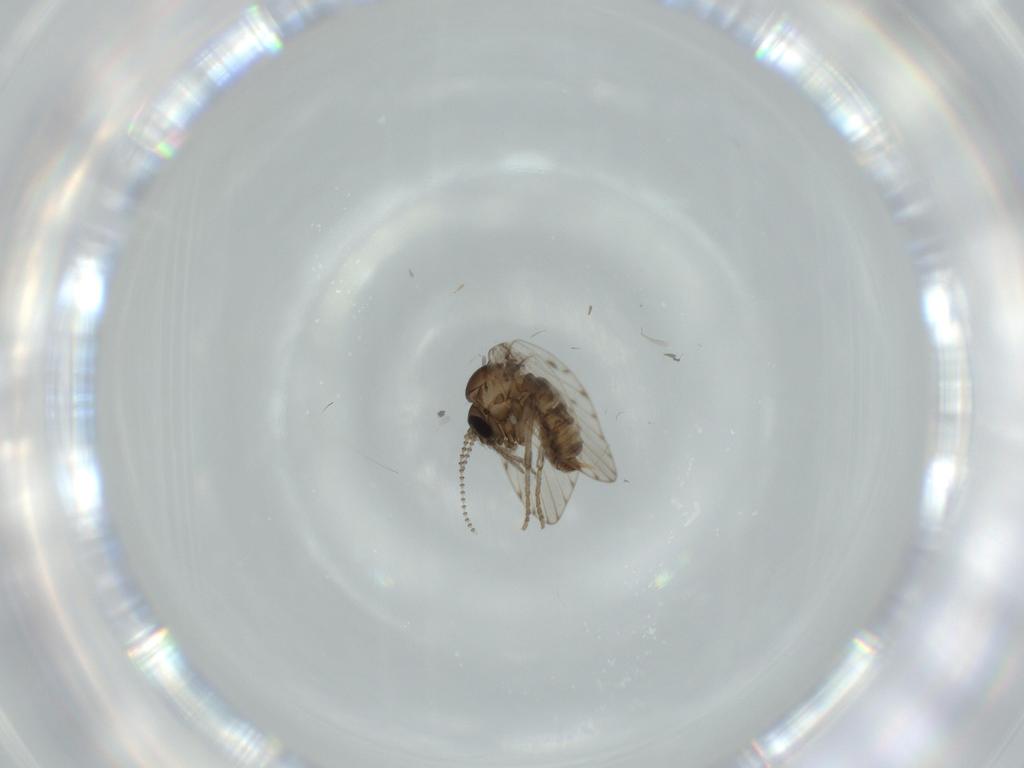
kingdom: Animalia
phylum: Arthropoda
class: Insecta
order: Diptera
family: Psychodidae
